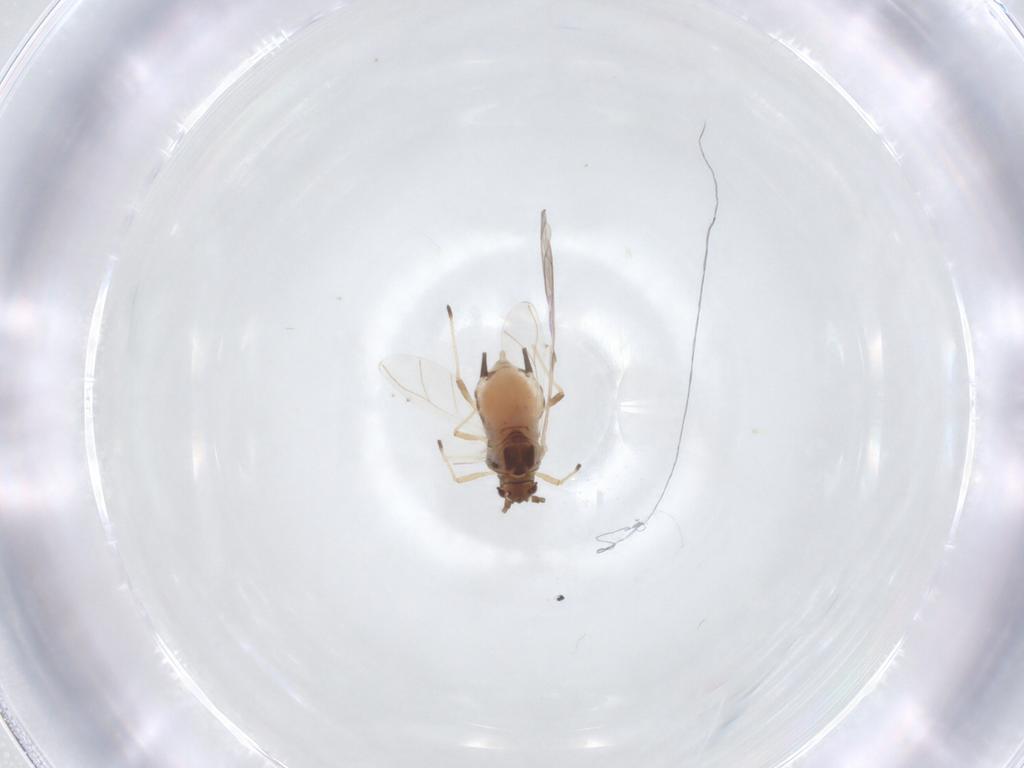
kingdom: Animalia
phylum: Arthropoda
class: Insecta
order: Hemiptera
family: Aphididae
